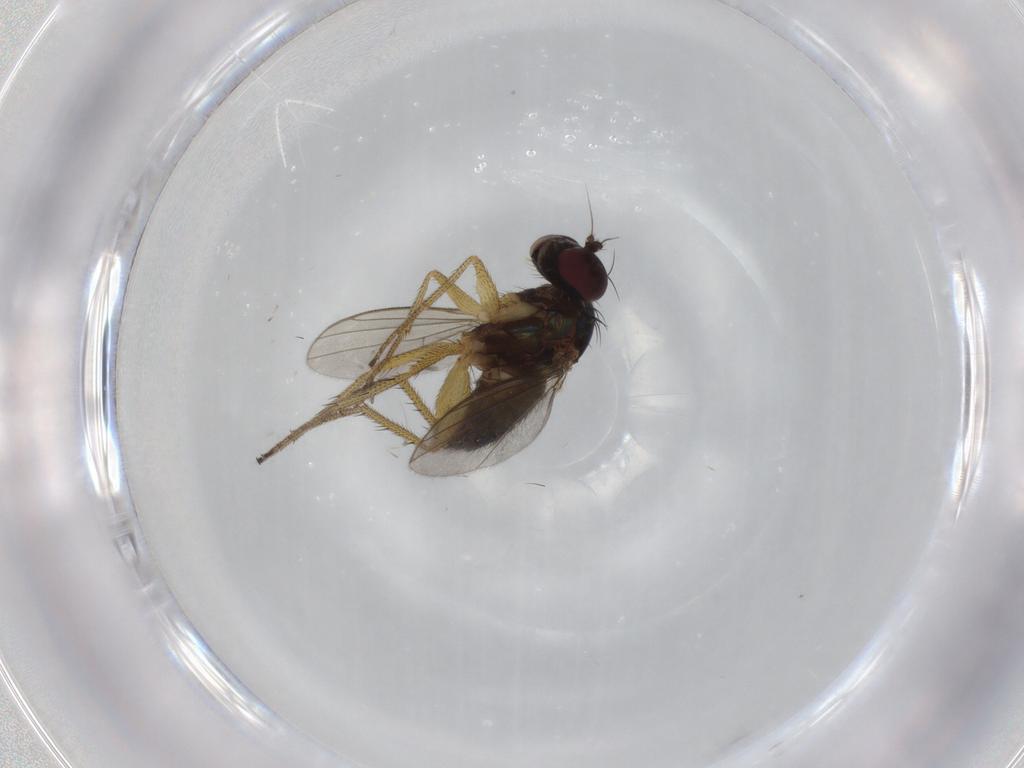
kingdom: Animalia
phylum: Arthropoda
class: Insecta
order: Diptera
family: Dolichopodidae
